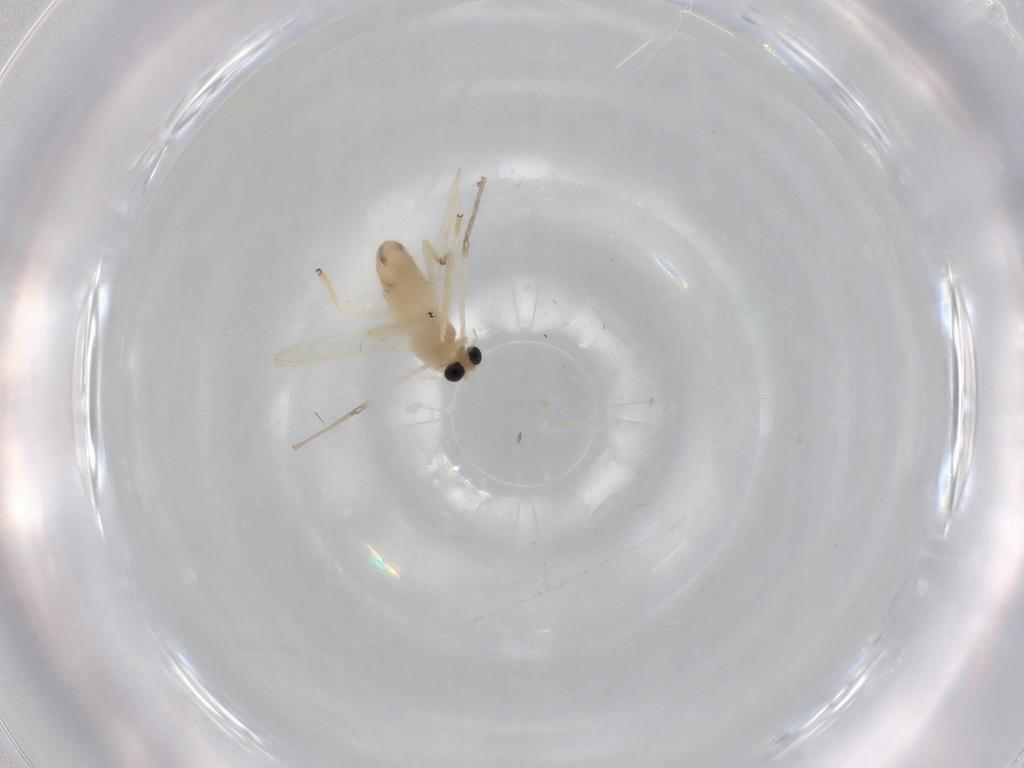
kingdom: Animalia
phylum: Arthropoda
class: Insecta
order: Diptera
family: Chironomidae
